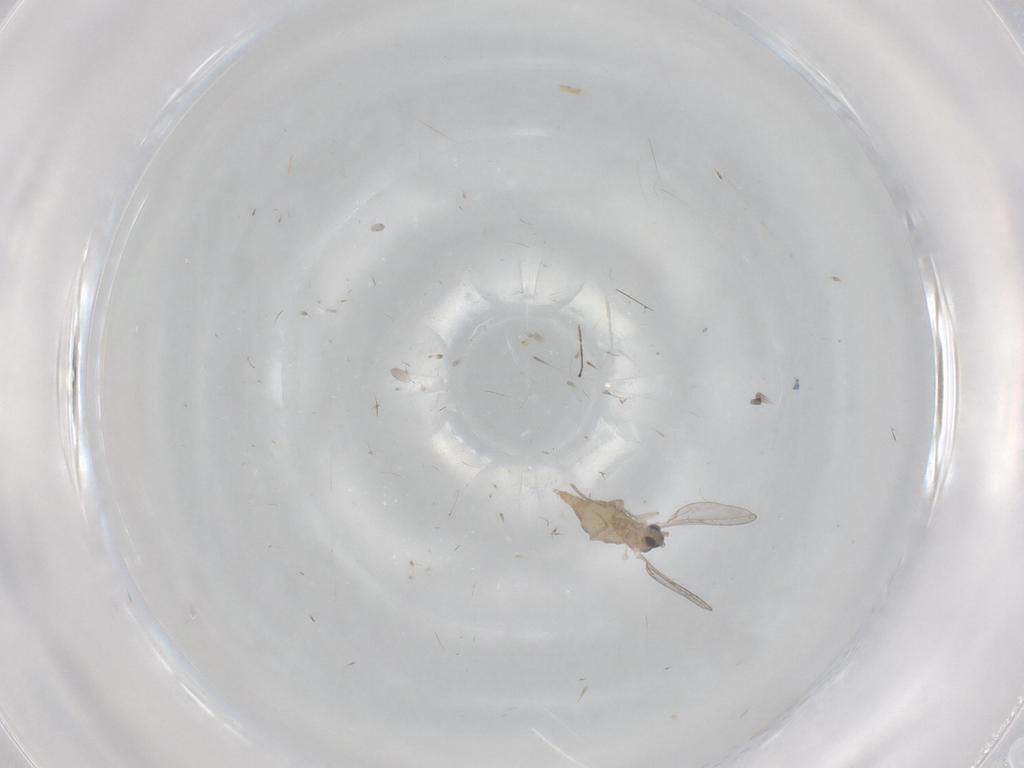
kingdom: Animalia
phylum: Arthropoda
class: Insecta
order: Diptera
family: Cecidomyiidae
